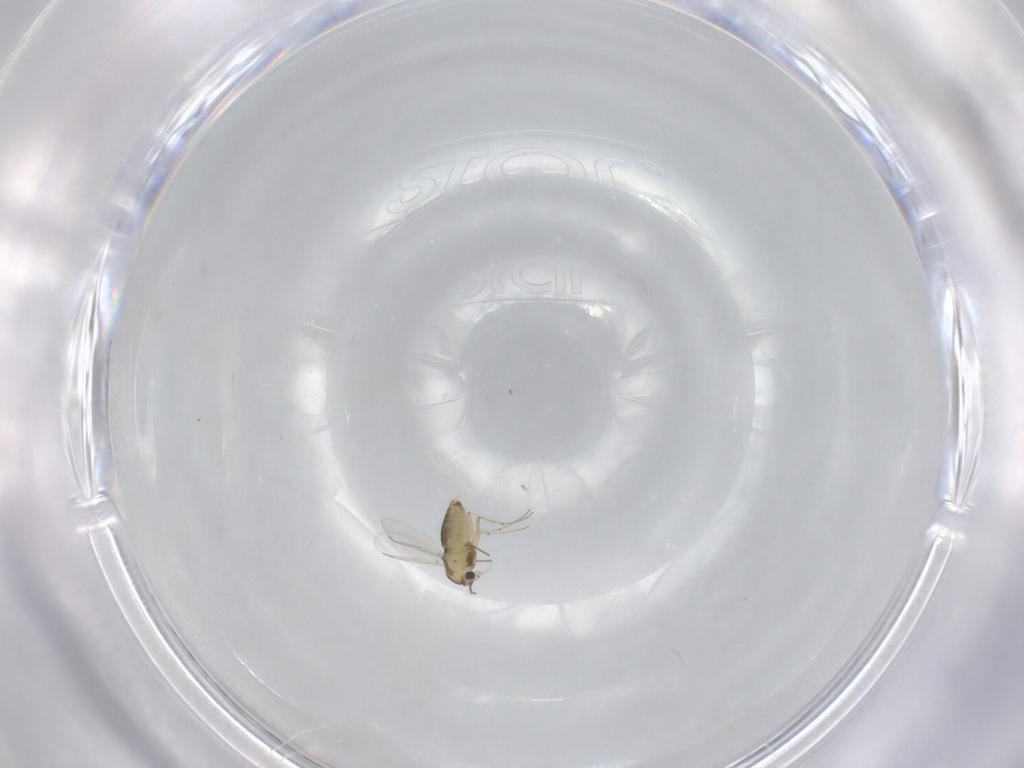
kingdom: Animalia
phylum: Arthropoda
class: Insecta
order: Diptera
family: Chironomidae
